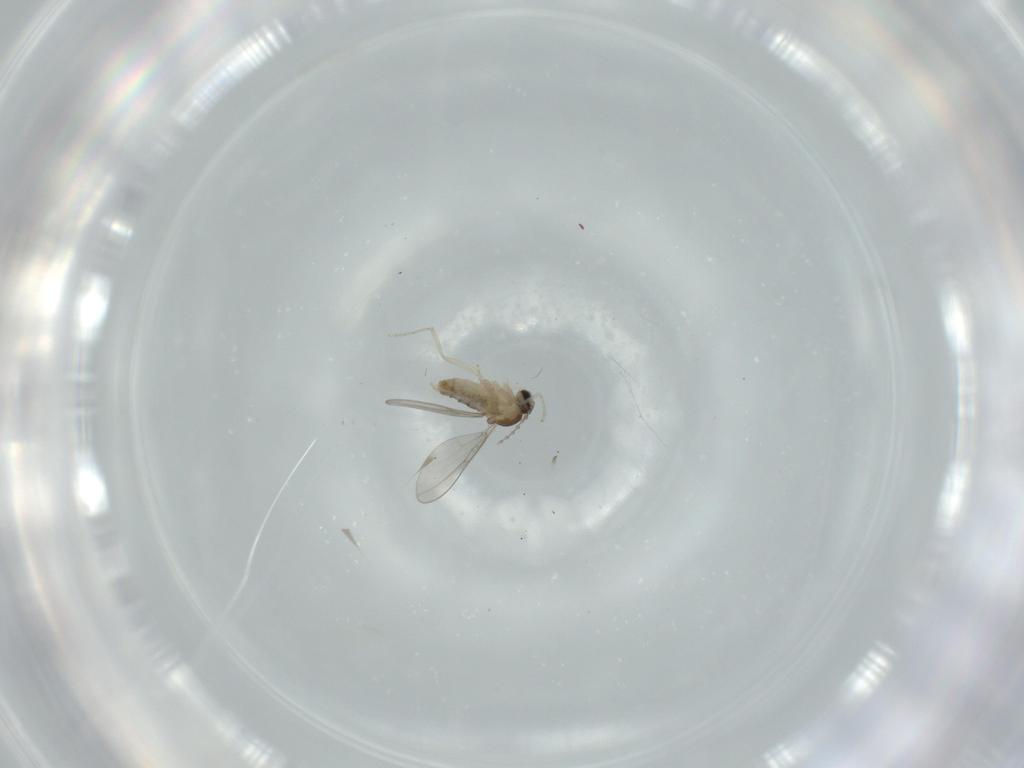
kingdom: Animalia
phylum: Arthropoda
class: Insecta
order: Diptera
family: Cecidomyiidae
